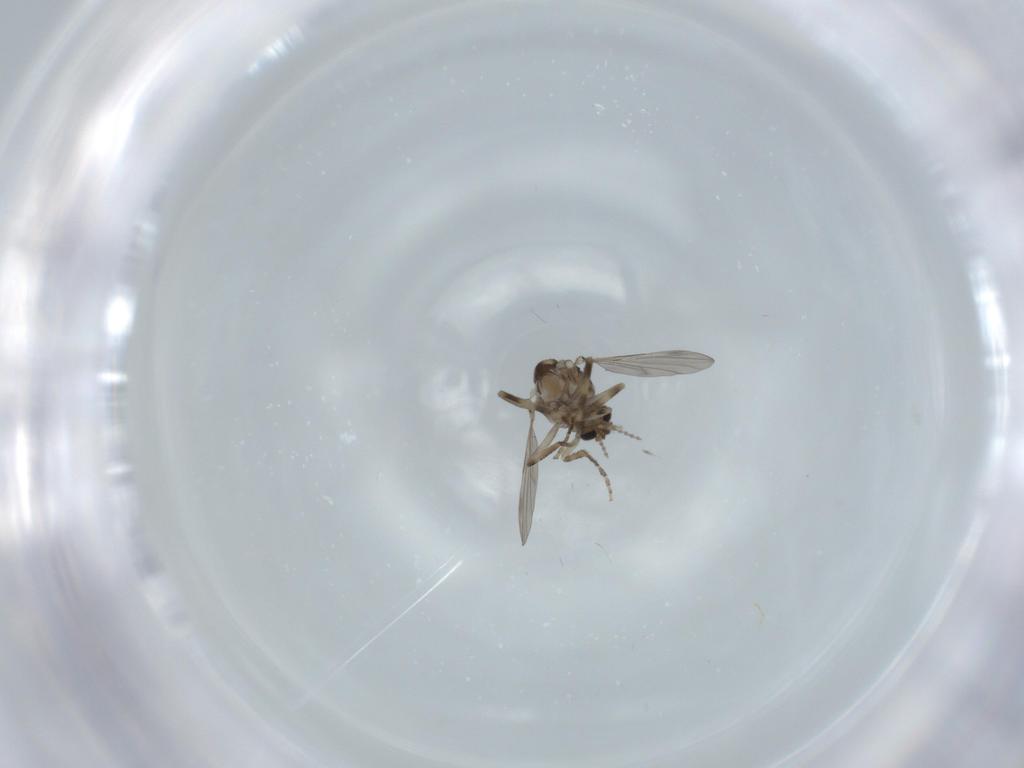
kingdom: Animalia
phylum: Arthropoda
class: Insecta
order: Diptera
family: Ceratopogonidae
